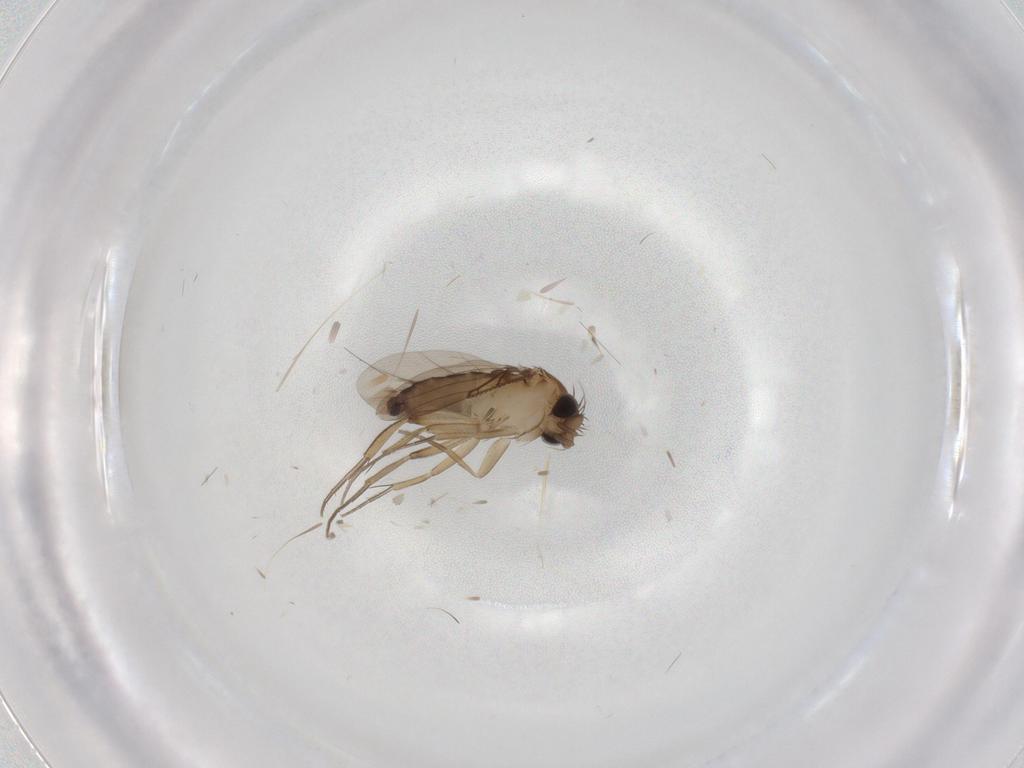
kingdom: Animalia
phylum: Arthropoda
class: Insecta
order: Diptera
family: Phoridae
